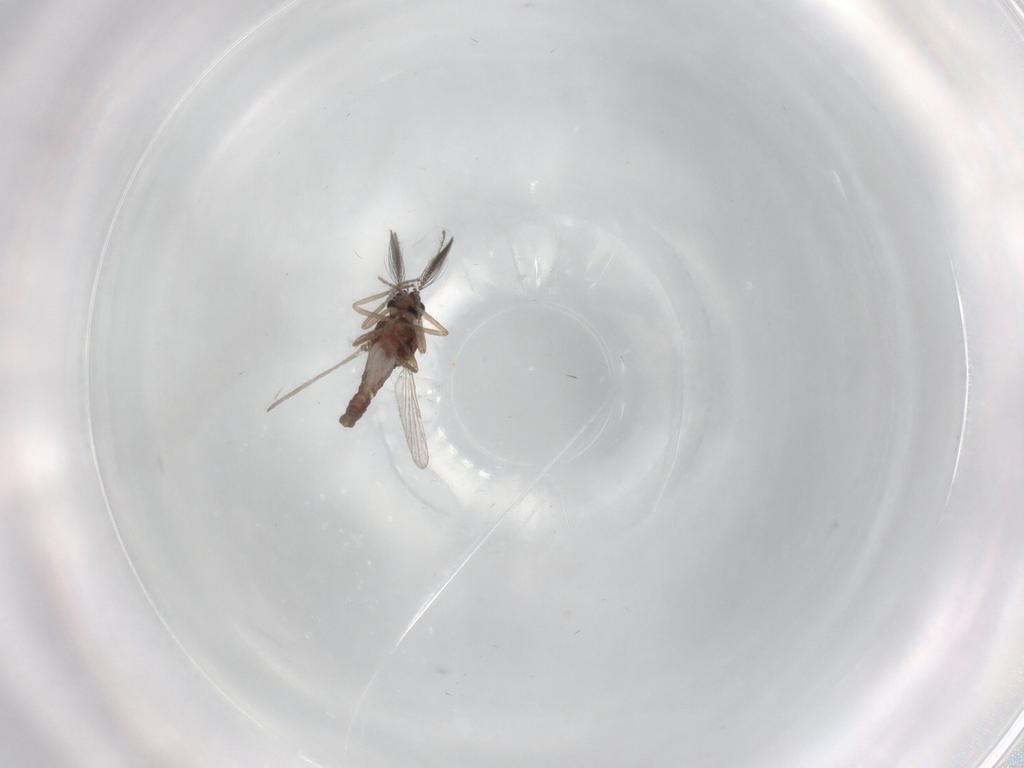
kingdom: Animalia
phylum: Arthropoda
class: Insecta
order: Diptera
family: Ceratopogonidae
